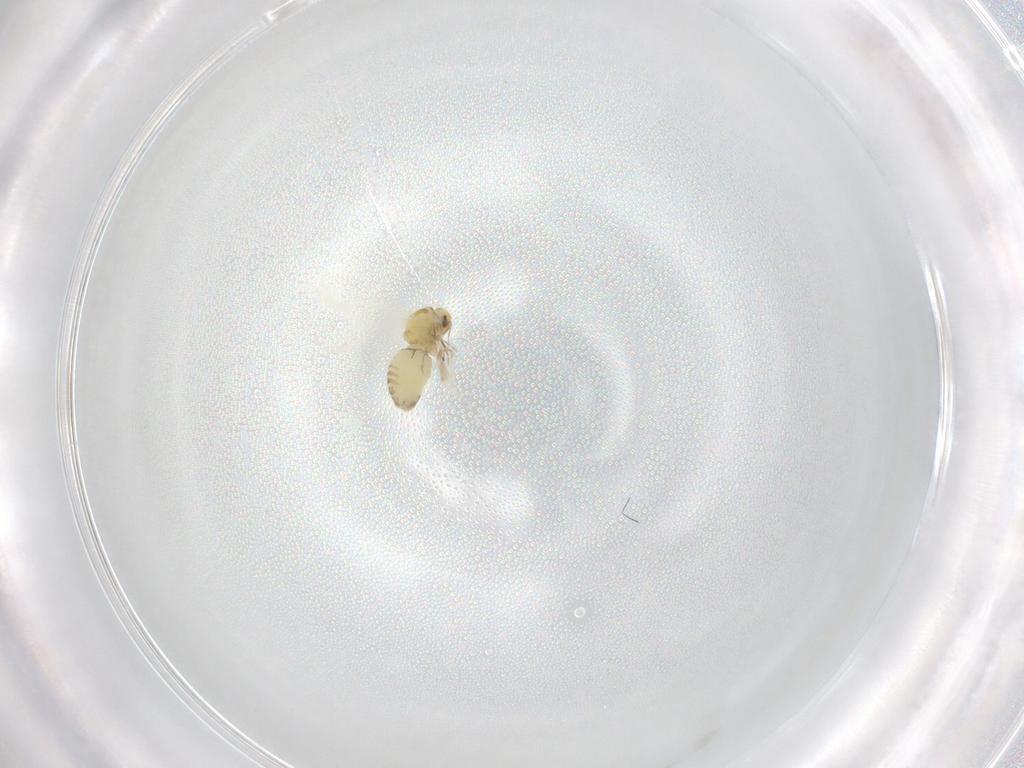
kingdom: Animalia
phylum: Arthropoda
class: Insecta
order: Hemiptera
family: Aleyrodidae
